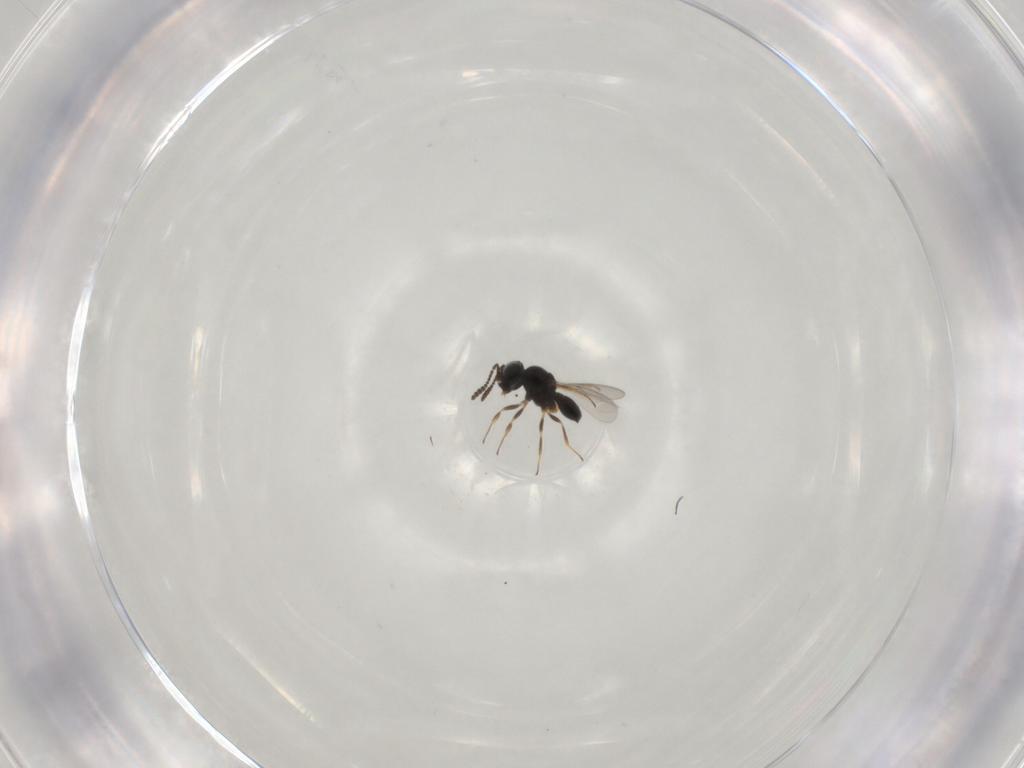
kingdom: Animalia
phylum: Arthropoda
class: Insecta
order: Hymenoptera
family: Scelionidae
